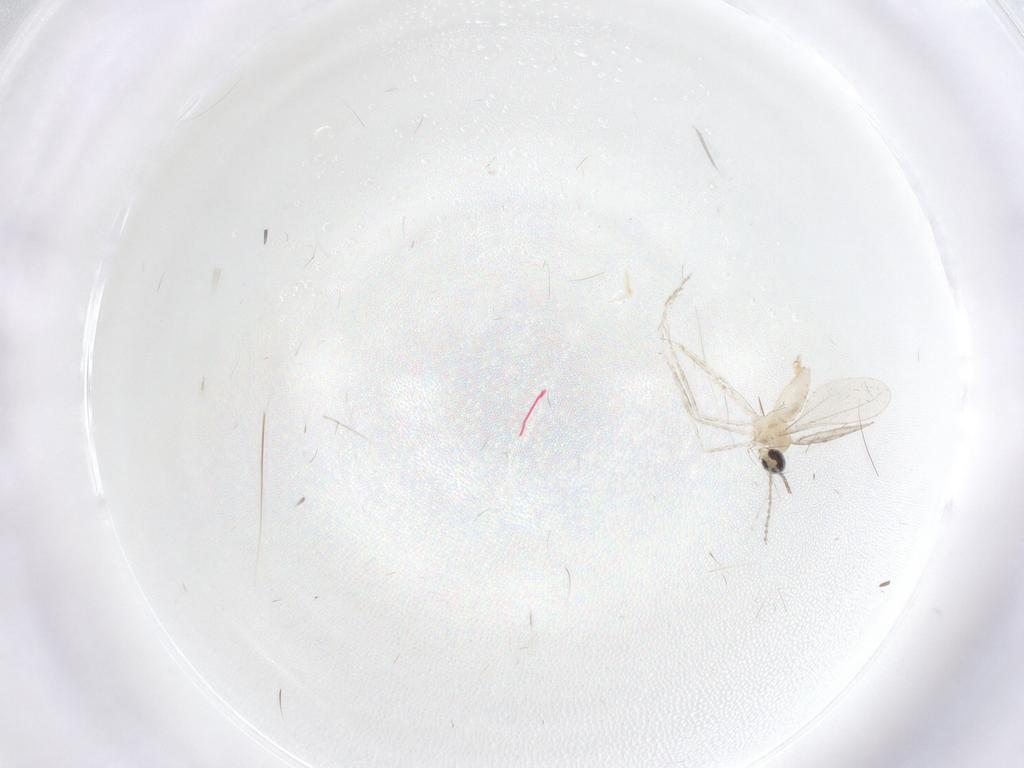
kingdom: Animalia
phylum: Arthropoda
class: Insecta
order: Diptera
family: Cecidomyiidae
